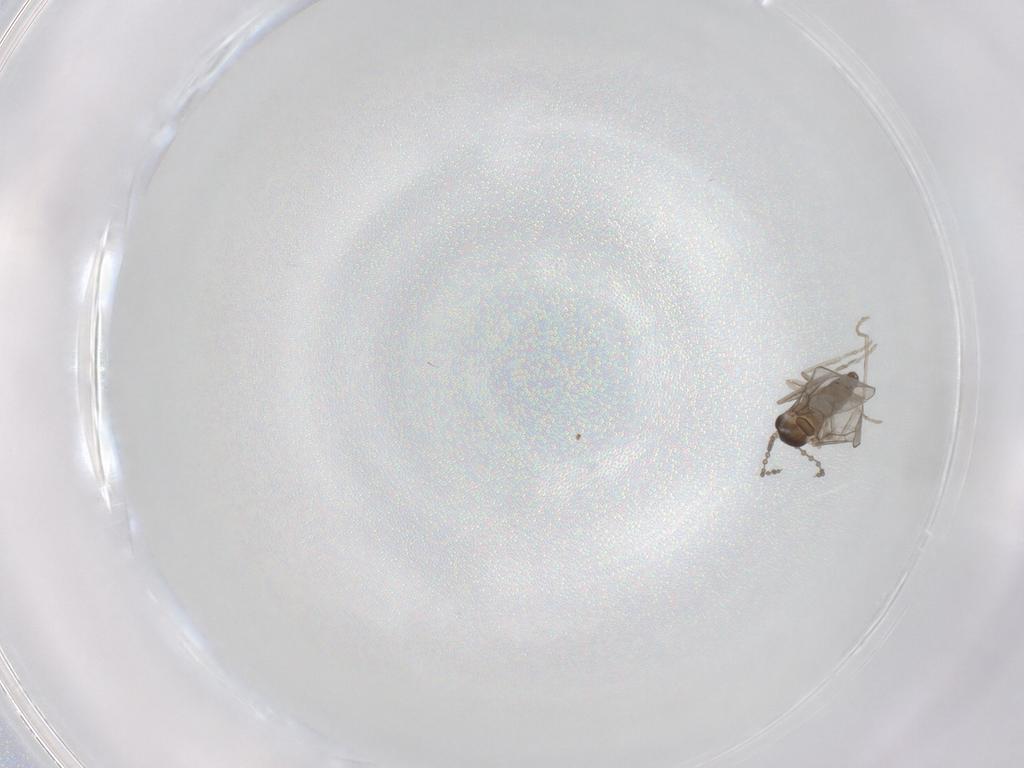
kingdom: Animalia
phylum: Arthropoda
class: Insecta
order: Diptera
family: Cecidomyiidae
